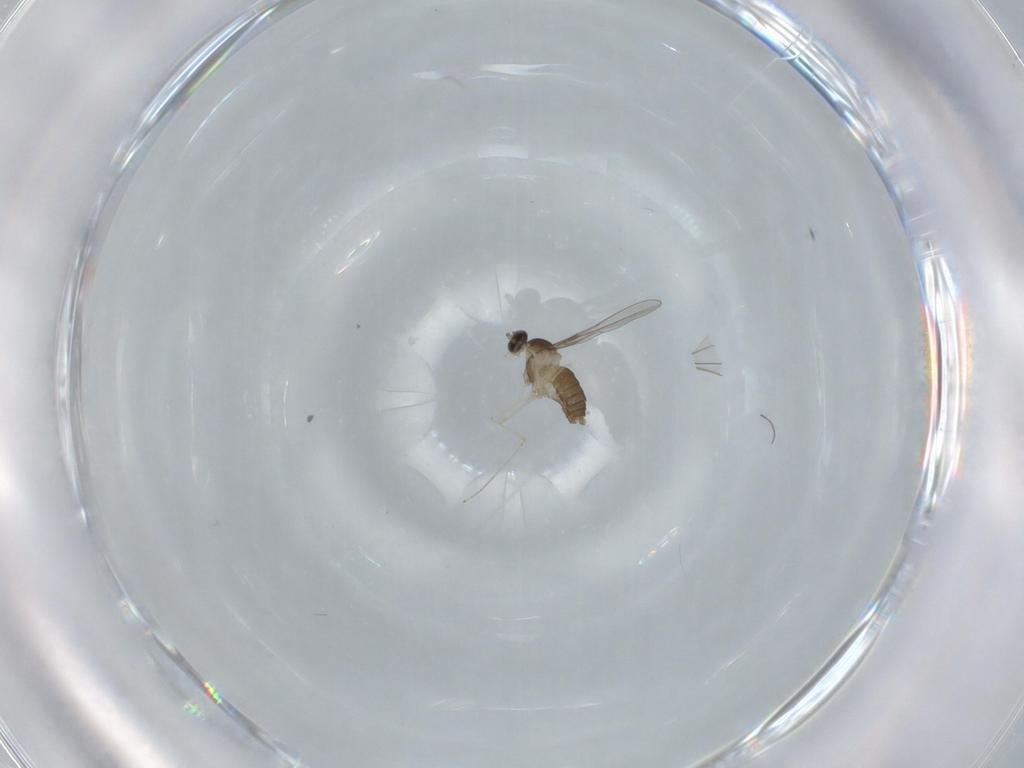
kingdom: Animalia
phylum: Arthropoda
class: Insecta
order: Diptera
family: Cecidomyiidae
